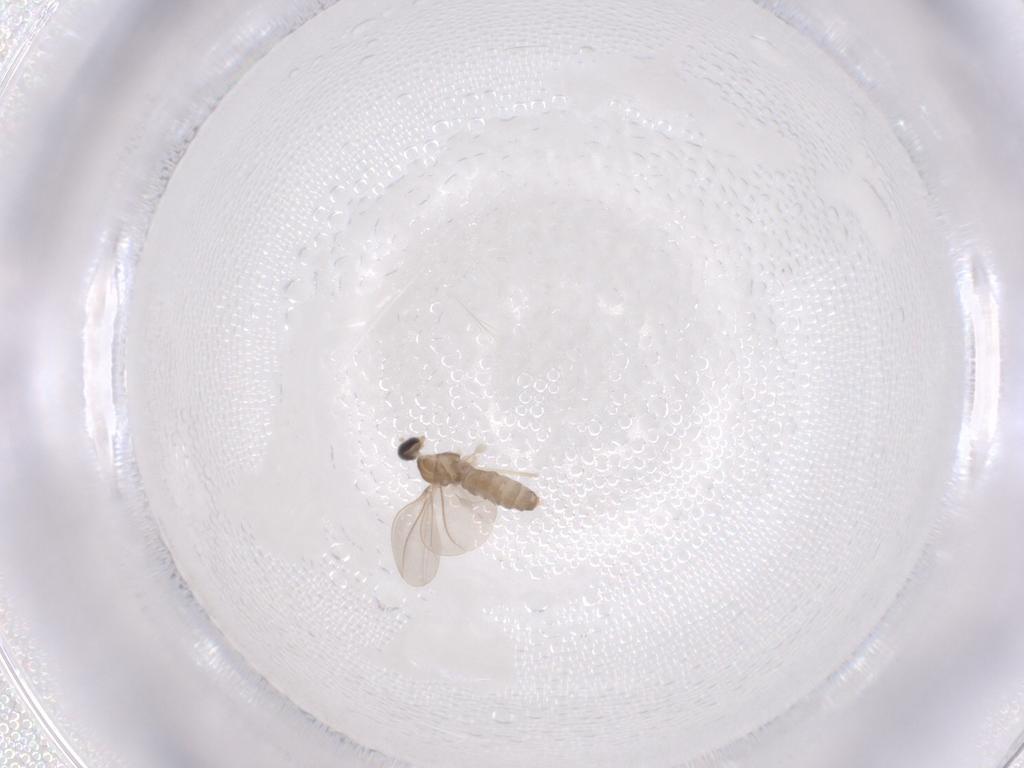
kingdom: Animalia
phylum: Arthropoda
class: Insecta
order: Diptera
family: Cecidomyiidae
